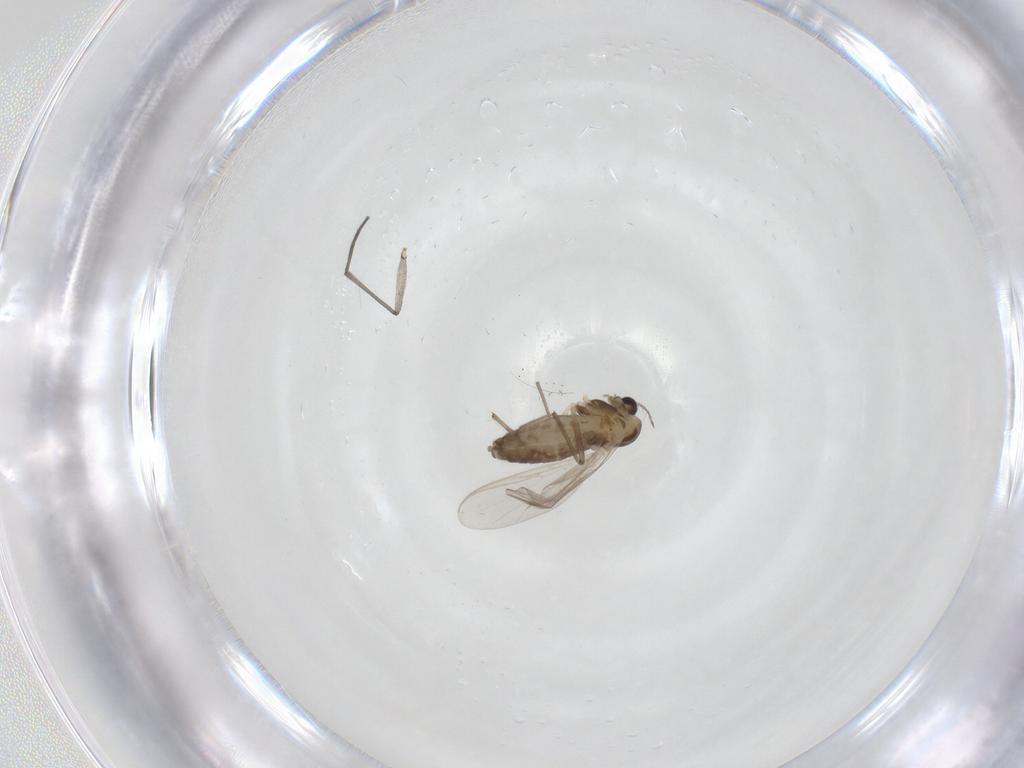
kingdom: Animalia
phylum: Arthropoda
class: Insecta
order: Diptera
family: Chironomidae
